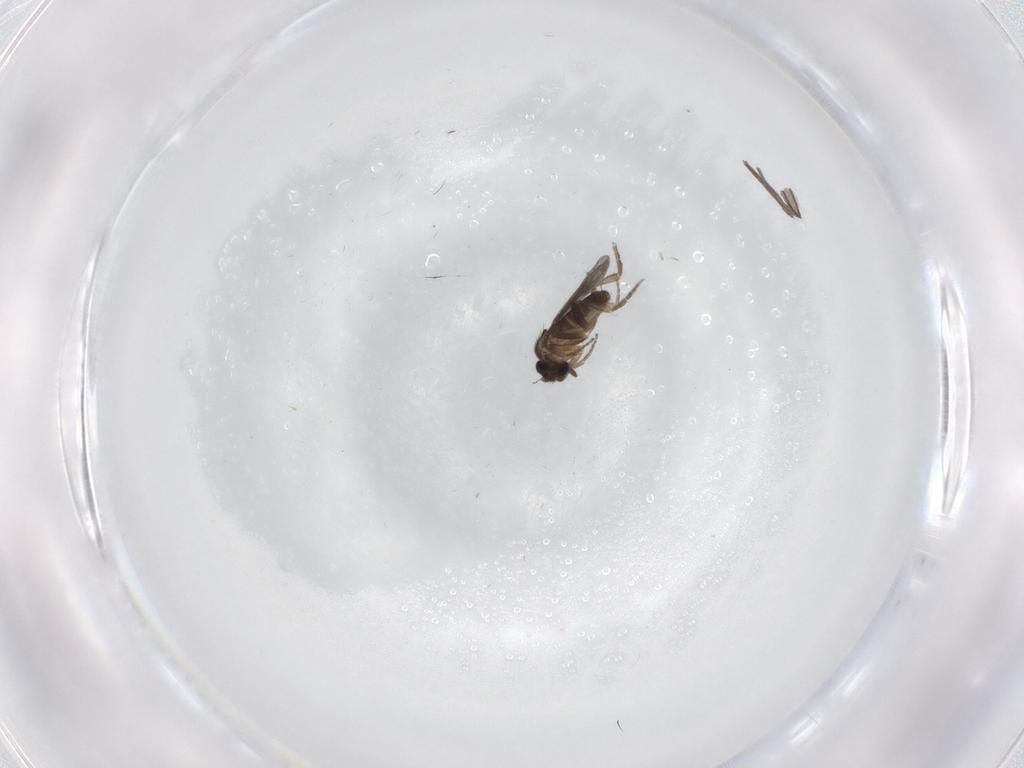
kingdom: Animalia
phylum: Arthropoda
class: Insecta
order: Diptera
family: Sciaridae
